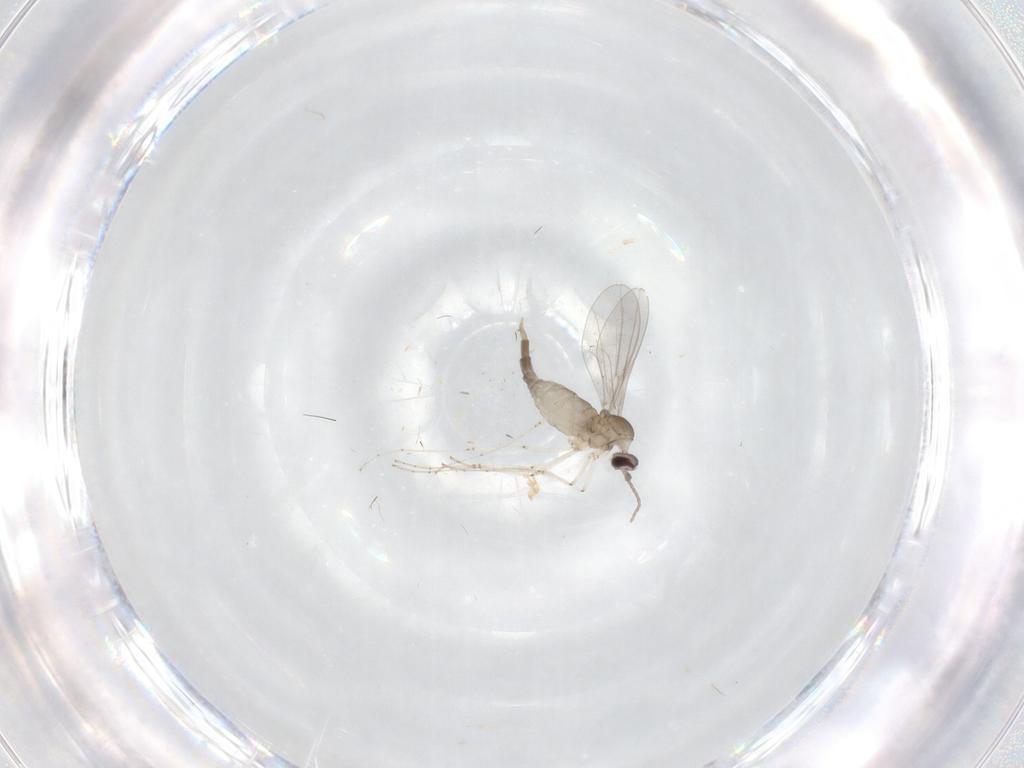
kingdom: Animalia
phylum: Arthropoda
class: Insecta
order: Diptera
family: Cecidomyiidae
